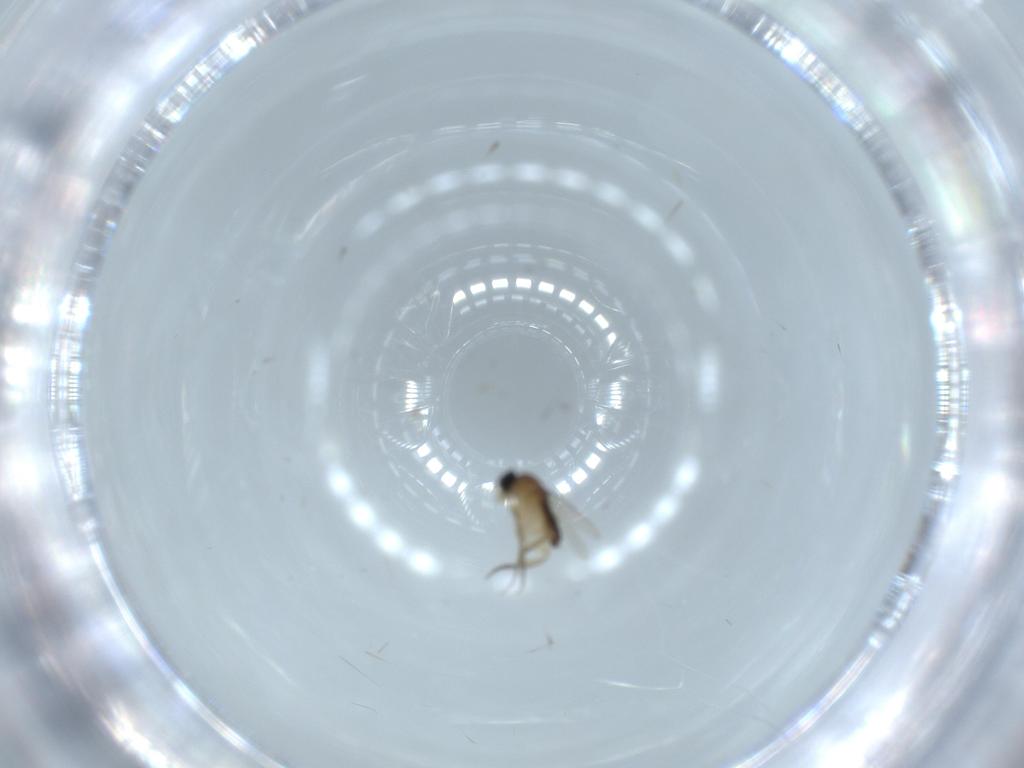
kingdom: Animalia
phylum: Arthropoda
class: Insecta
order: Diptera
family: Phoridae
